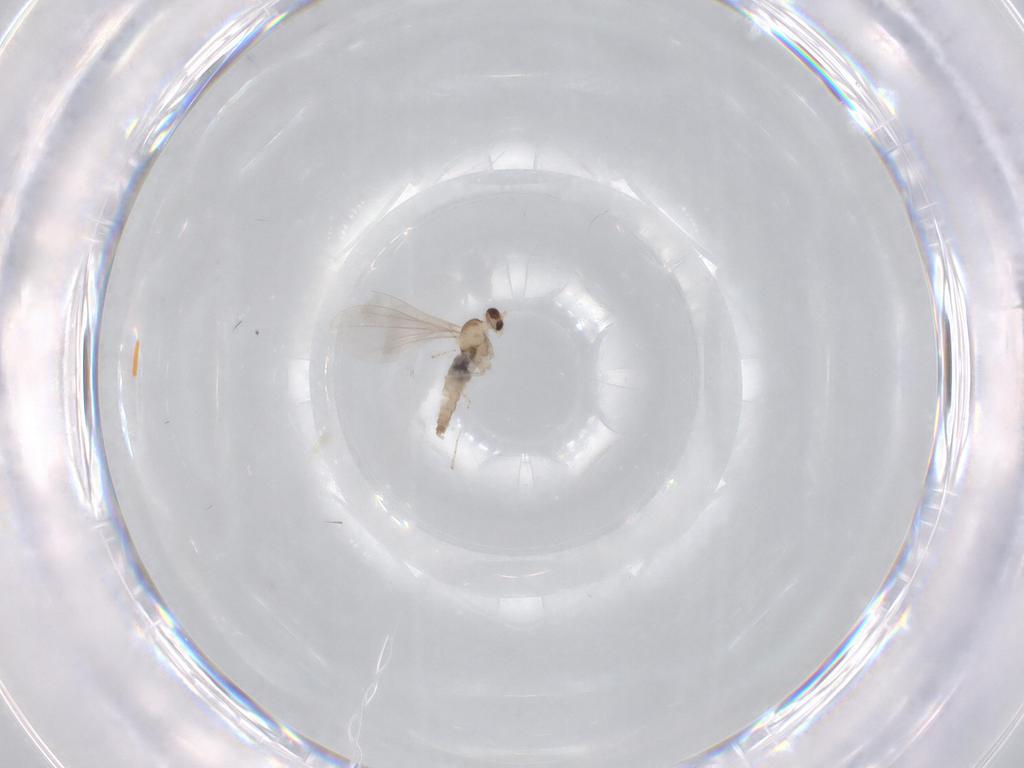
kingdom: Animalia
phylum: Arthropoda
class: Insecta
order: Diptera
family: Cecidomyiidae
